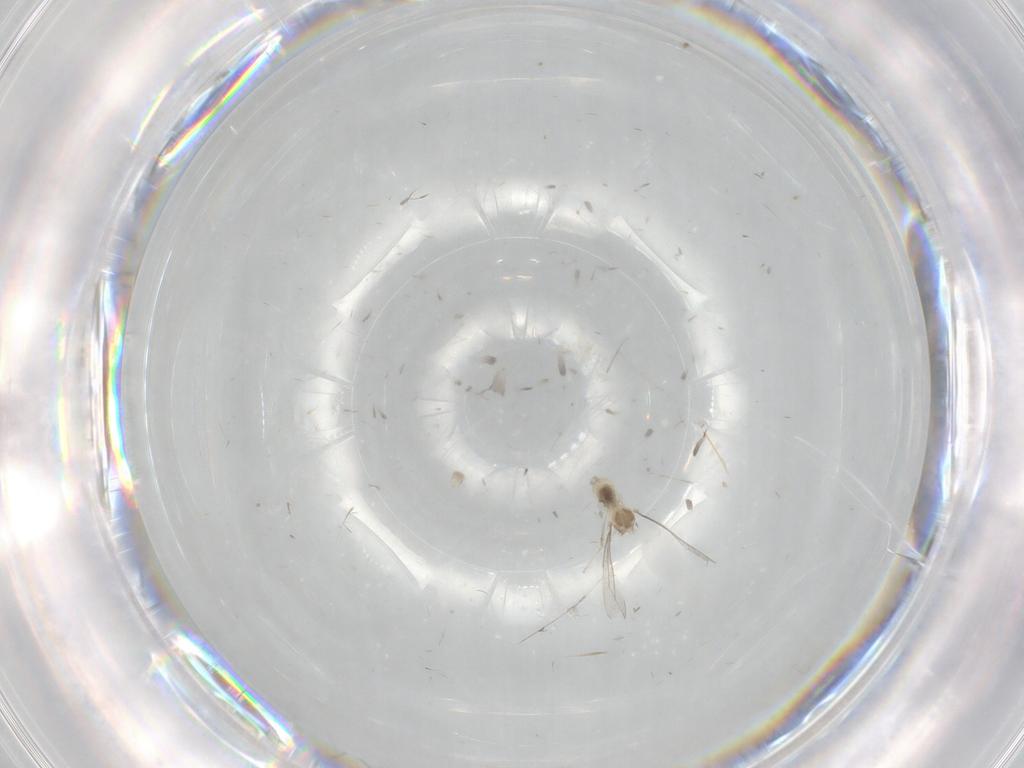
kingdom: Animalia
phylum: Arthropoda
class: Insecta
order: Diptera
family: Cecidomyiidae
